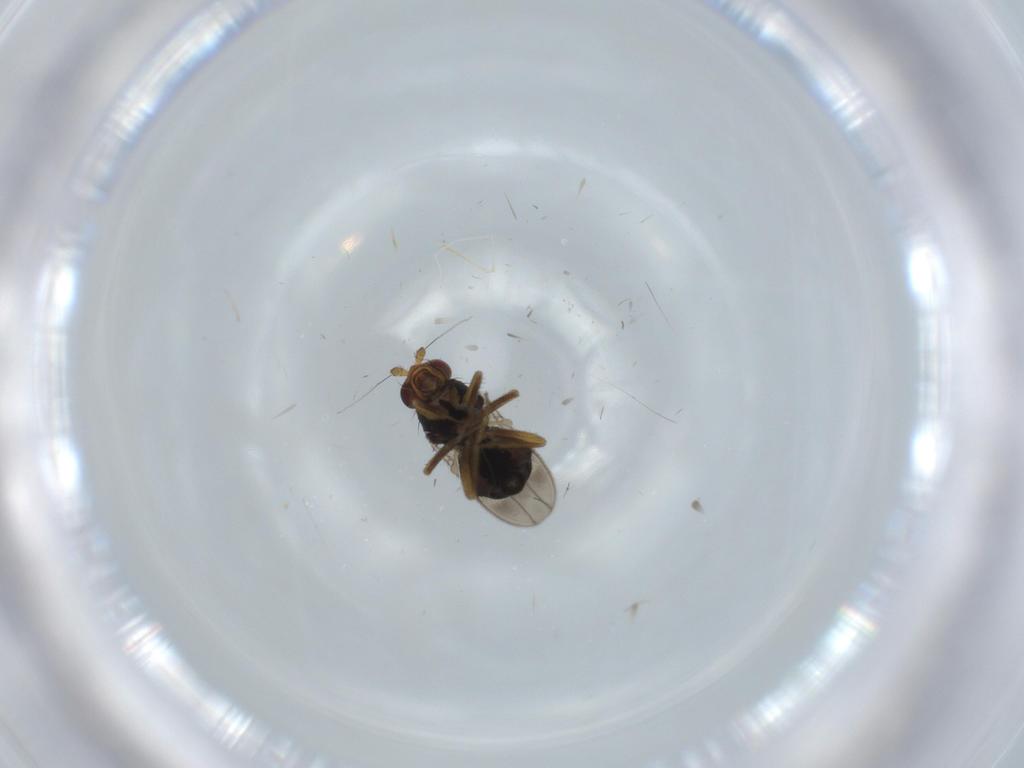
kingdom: Animalia
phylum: Arthropoda
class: Insecta
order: Diptera
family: Sphaeroceridae
